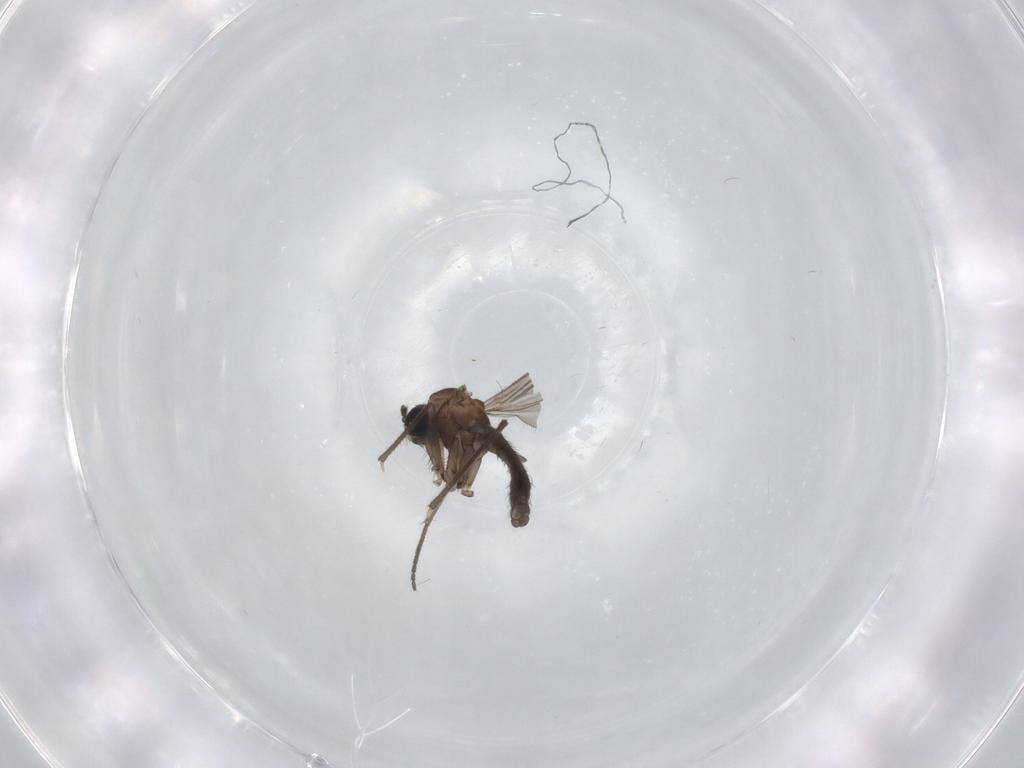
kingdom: Animalia
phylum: Arthropoda
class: Insecta
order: Diptera
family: Sciaridae
